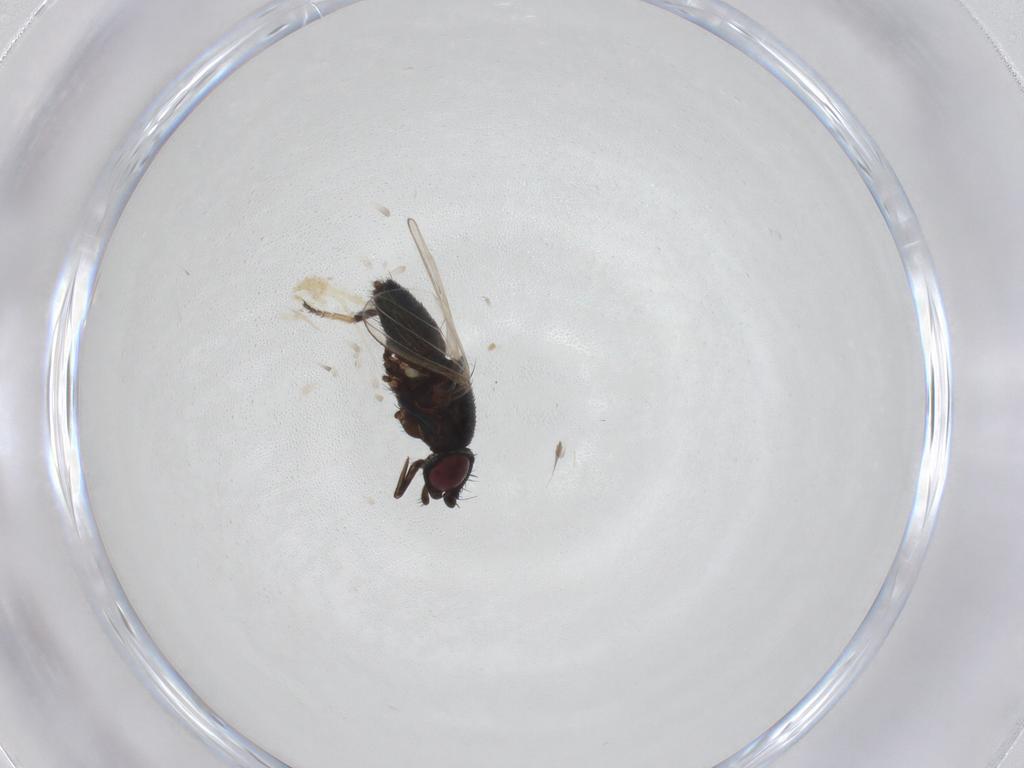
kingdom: Animalia
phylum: Arthropoda
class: Insecta
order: Diptera
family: Milichiidae
